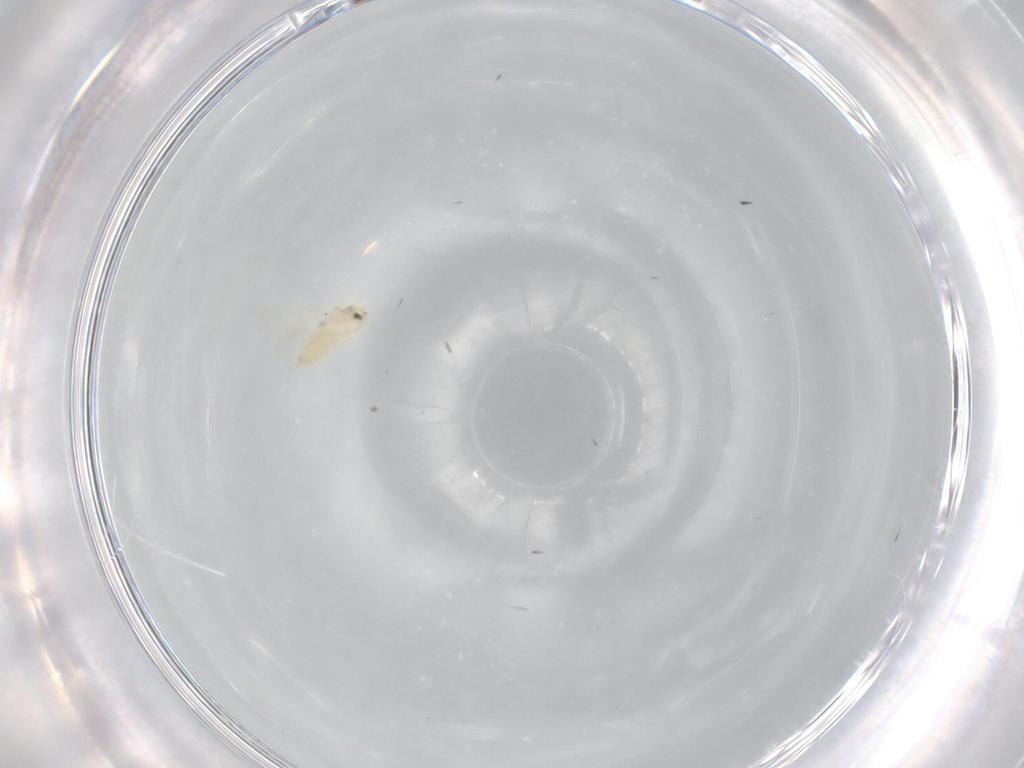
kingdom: Animalia
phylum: Arthropoda
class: Insecta
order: Hemiptera
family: Aleyrodidae
